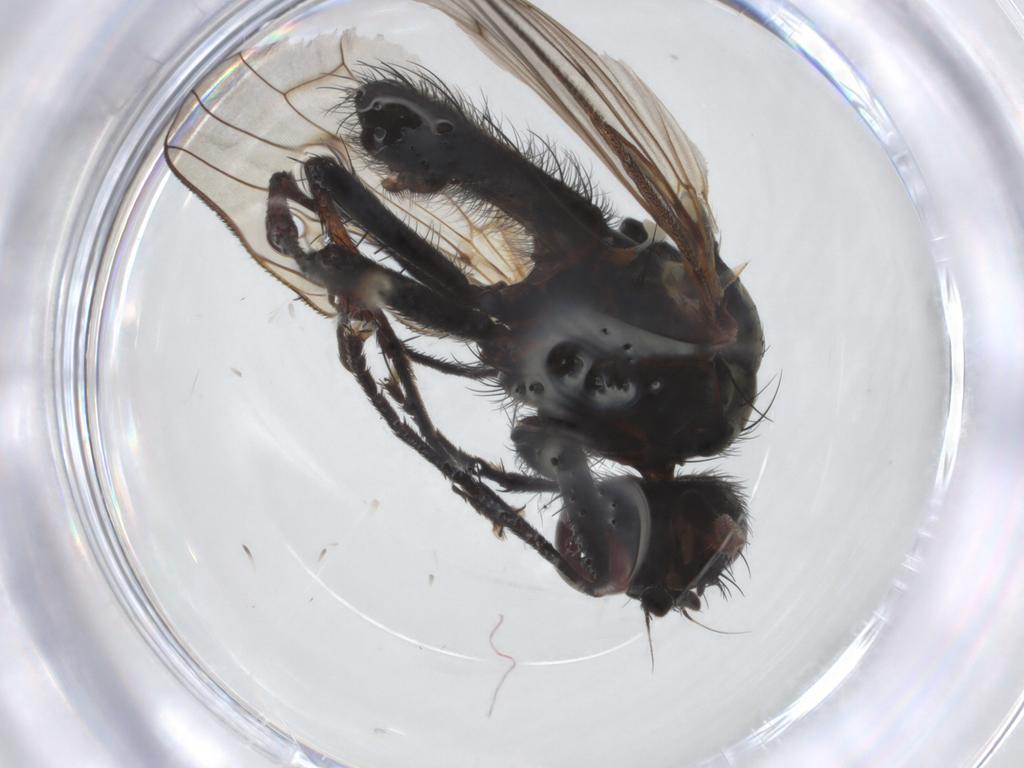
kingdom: Animalia
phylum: Arthropoda
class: Insecta
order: Diptera
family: Anthomyiidae
